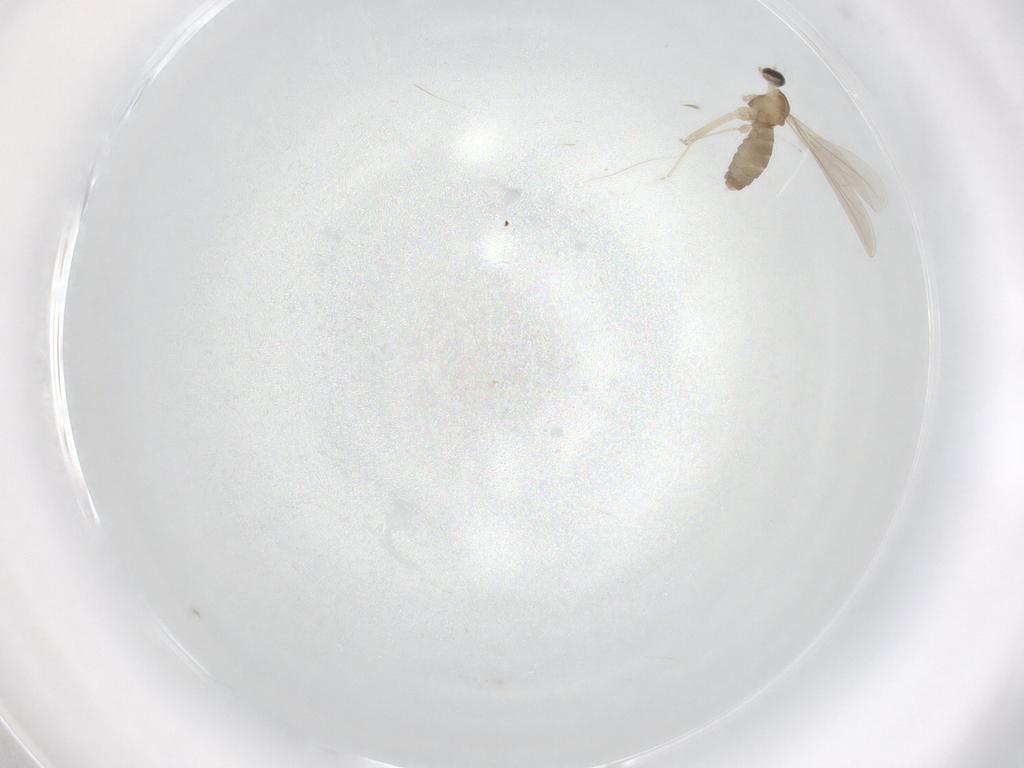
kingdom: Animalia
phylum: Arthropoda
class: Insecta
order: Diptera
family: Cecidomyiidae
